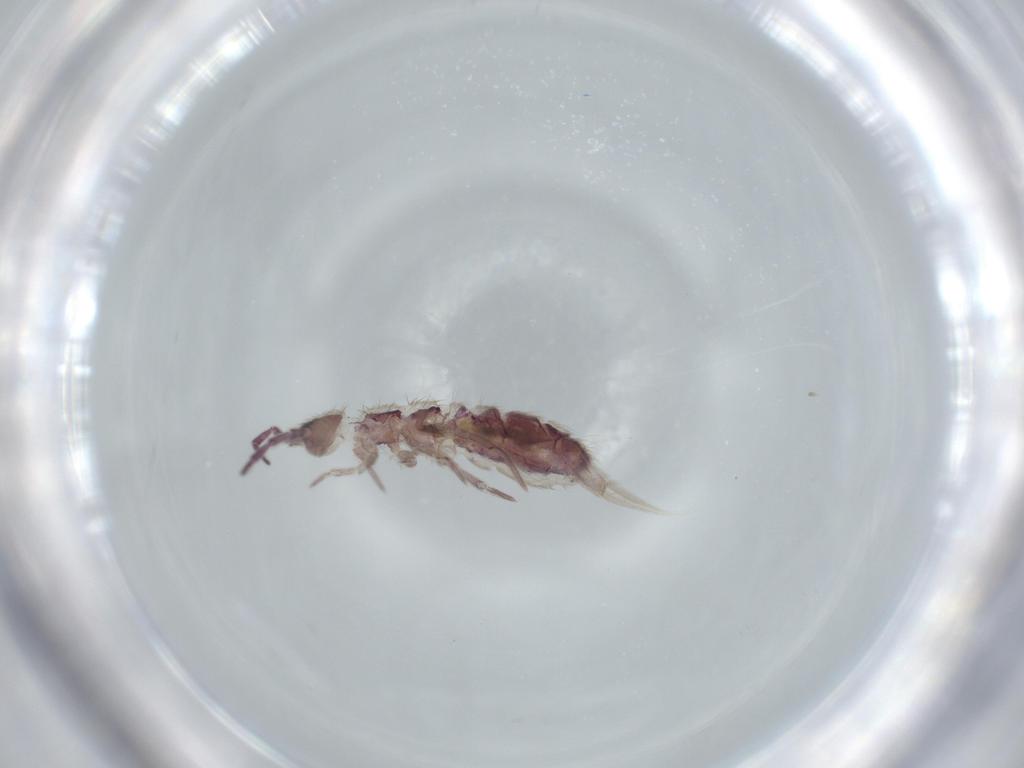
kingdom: Animalia
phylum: Arthropoda
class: Collembola
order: Entomobryomorpha
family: Isotomidae
